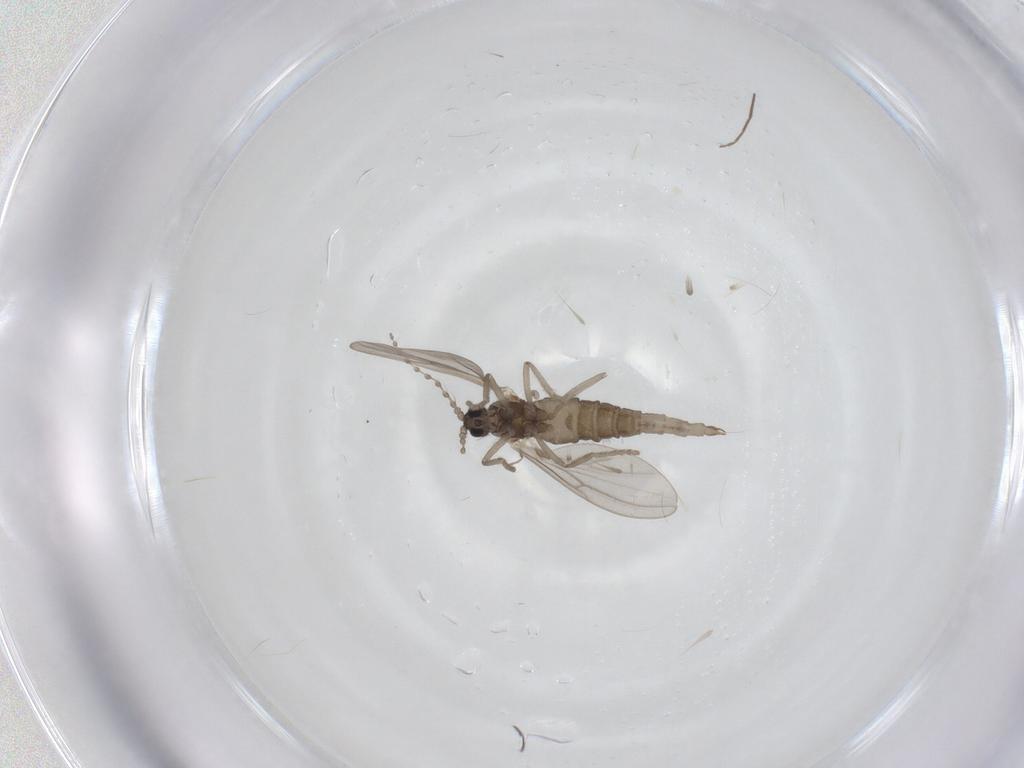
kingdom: Animalia
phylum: Arthropoda
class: Insecta
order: Diptera
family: Cecidomyiidae
